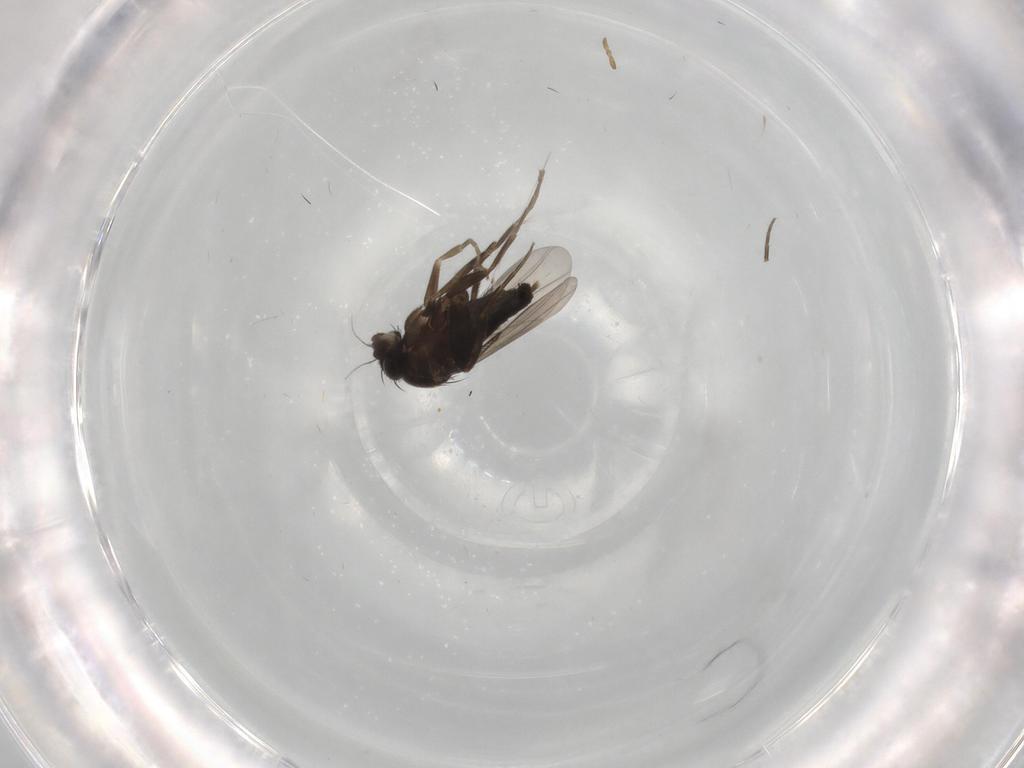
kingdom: Animalia
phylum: Arthropoda
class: Insecta
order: Diptera
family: Phoridae
